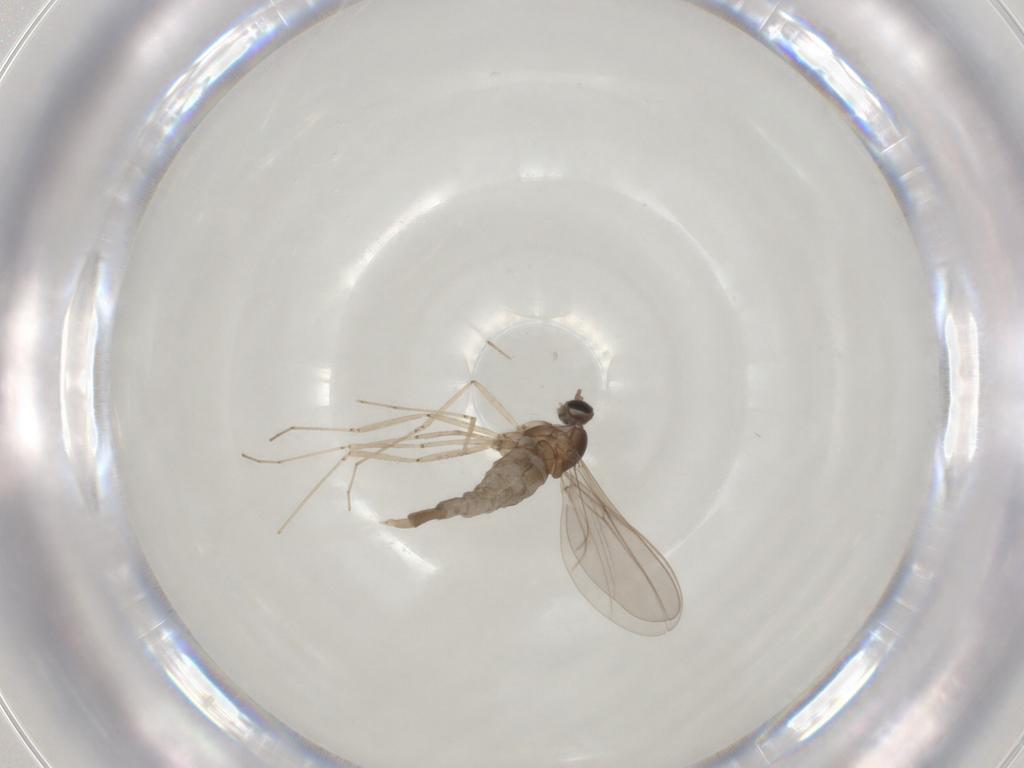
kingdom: Animalia
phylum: Arthropoda
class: Insecta
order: Diptera
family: Cecidomyiidae
